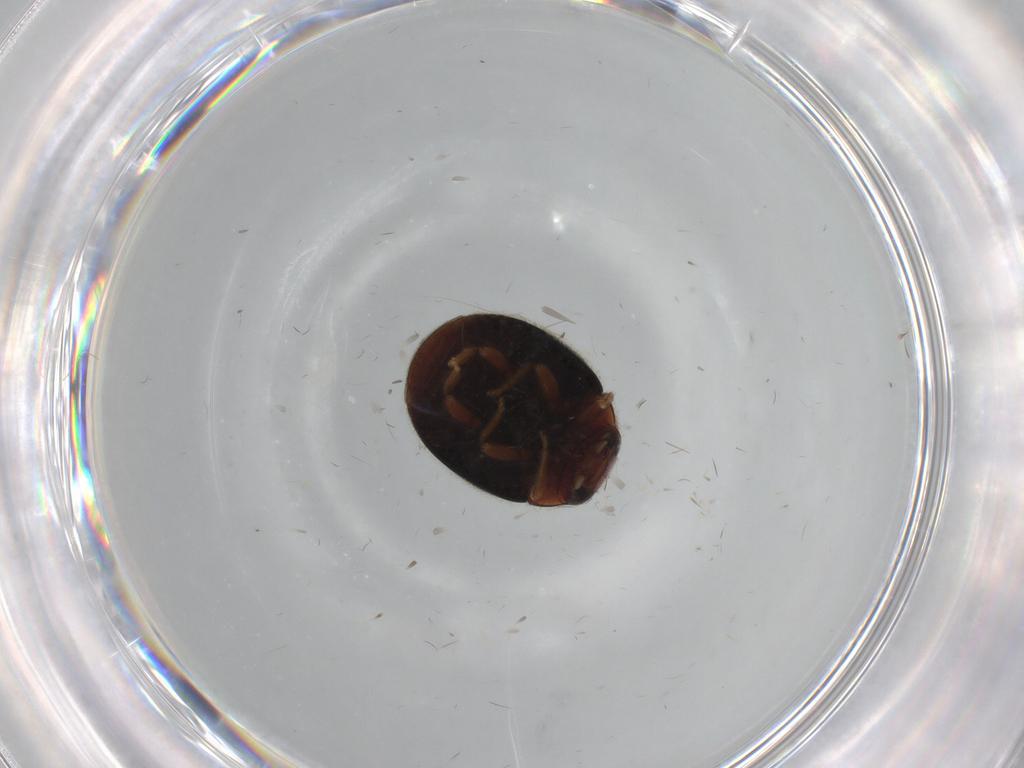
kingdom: Animalia
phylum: Arthropoda
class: Insecta
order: Coleoptera
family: Coccinellidae
